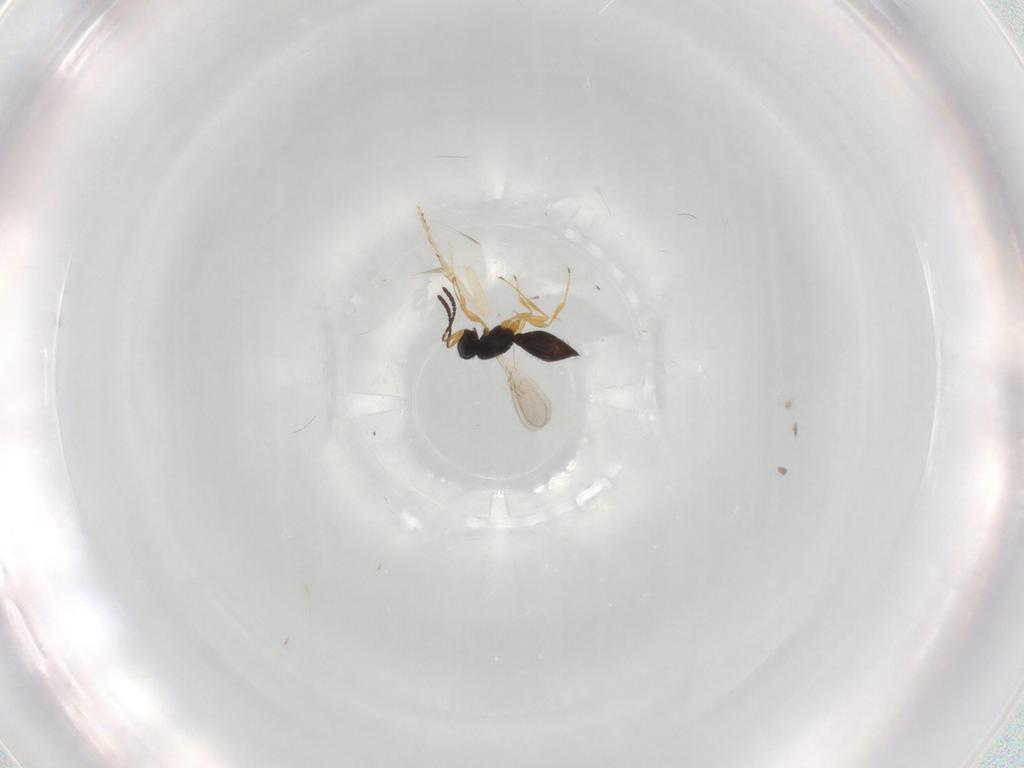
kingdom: Animalia
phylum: Arthropoda
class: Insecta
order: Hymenoptera
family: Scelionidae
